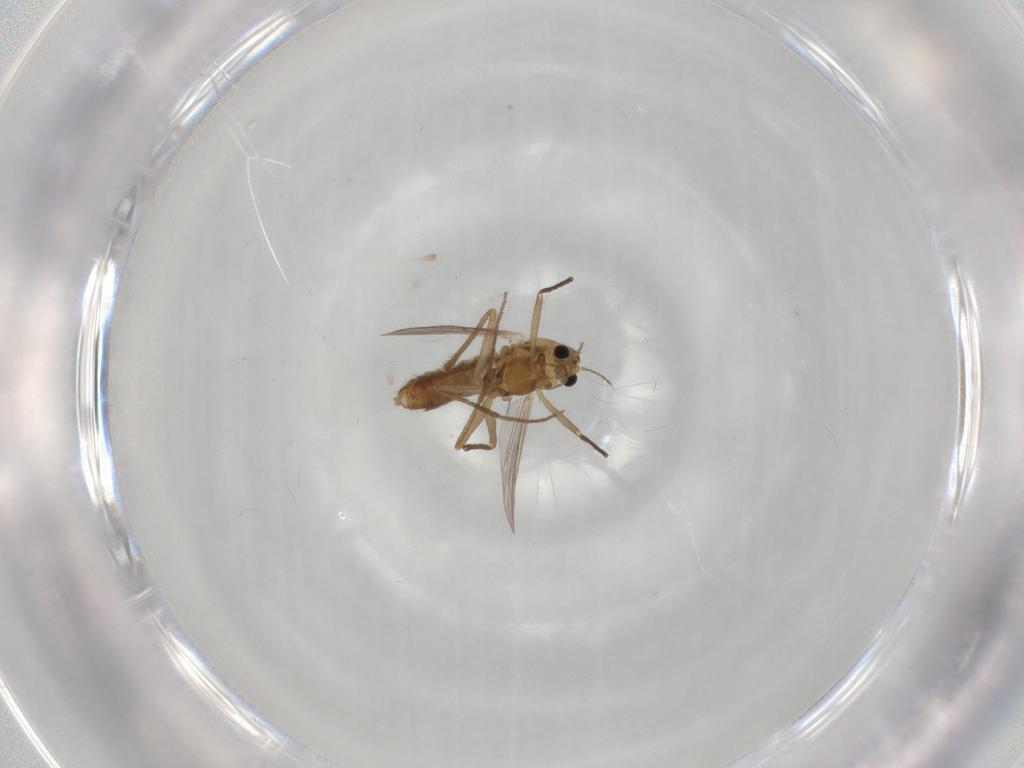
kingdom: Animalia
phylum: Arthropoda
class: Insecta
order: Diptera
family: Chironomidae
